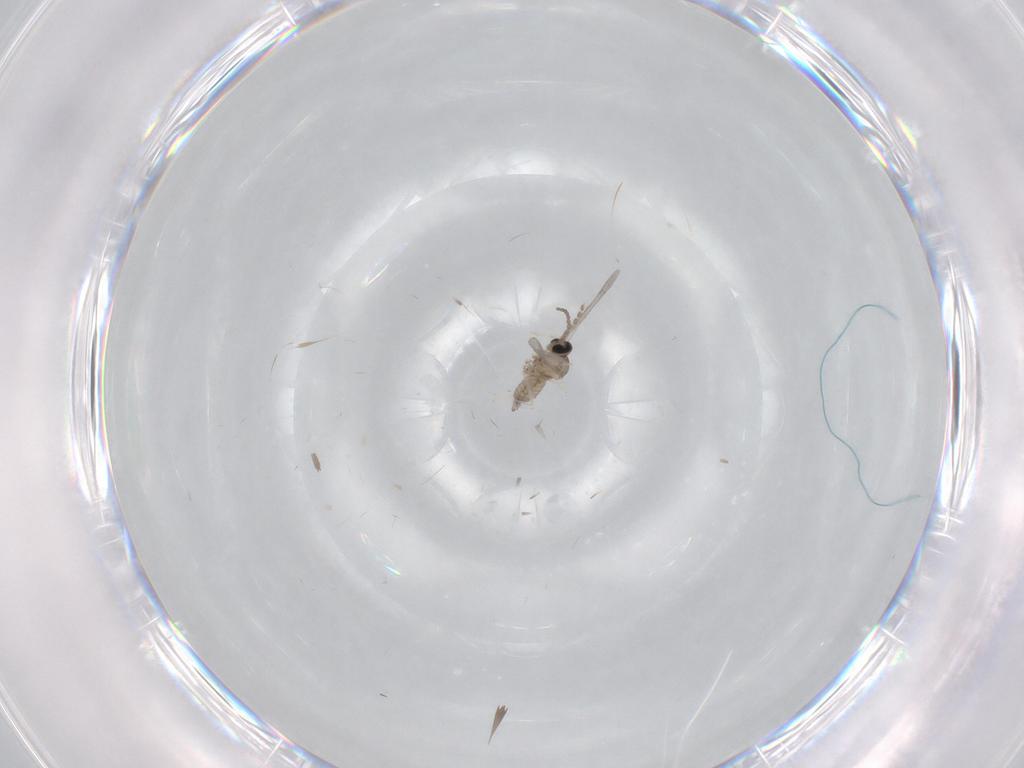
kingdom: Animalia
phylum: Arthropoda
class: Insecta
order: Diptera
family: Cecidomyiidae
